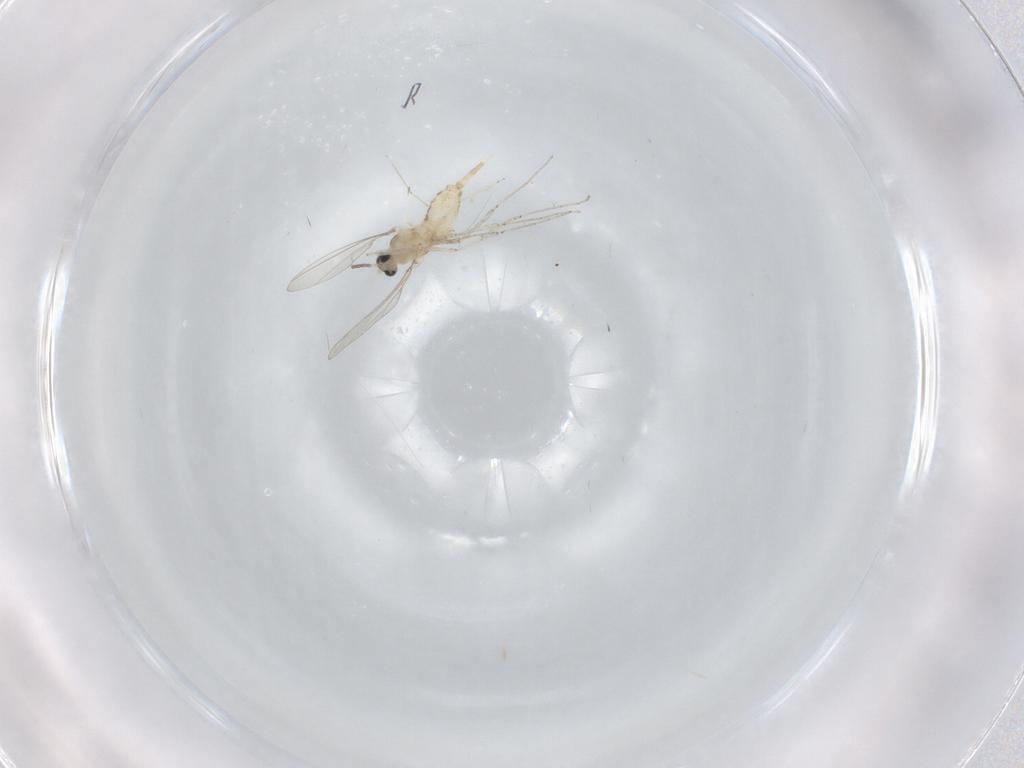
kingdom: Animalia
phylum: Arthropoda
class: Insecta
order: Diptera
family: Cecidomyiidae
